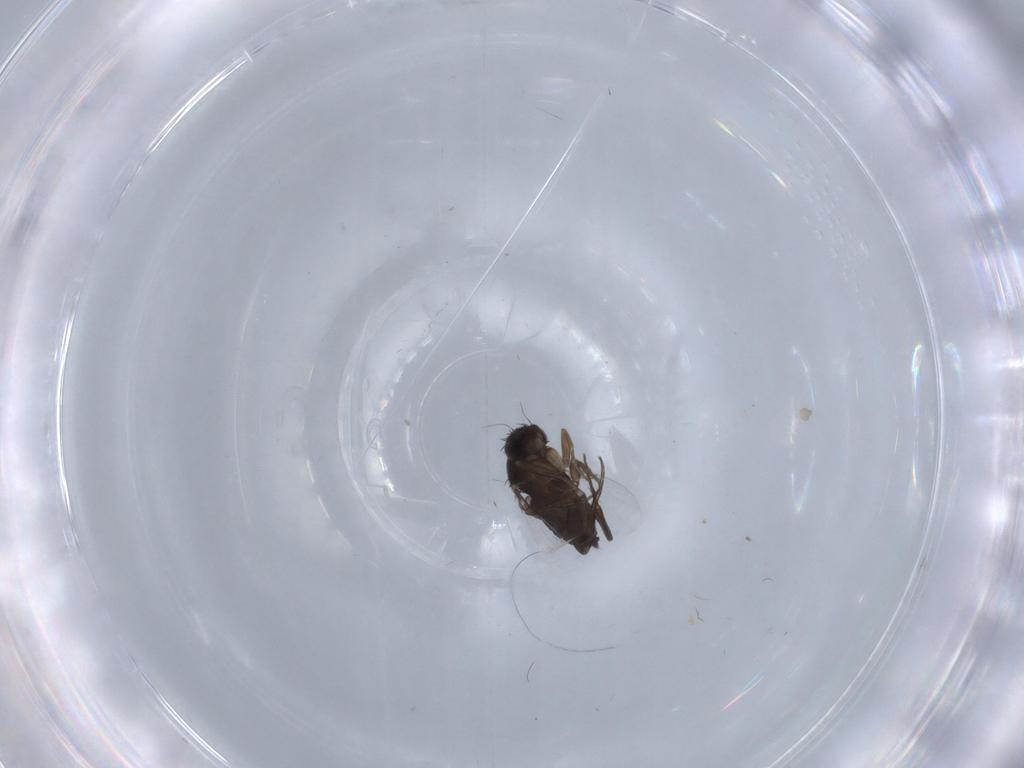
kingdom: Animalia
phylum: Arthropoda
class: Insecta
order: Diptera
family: Phoridae
